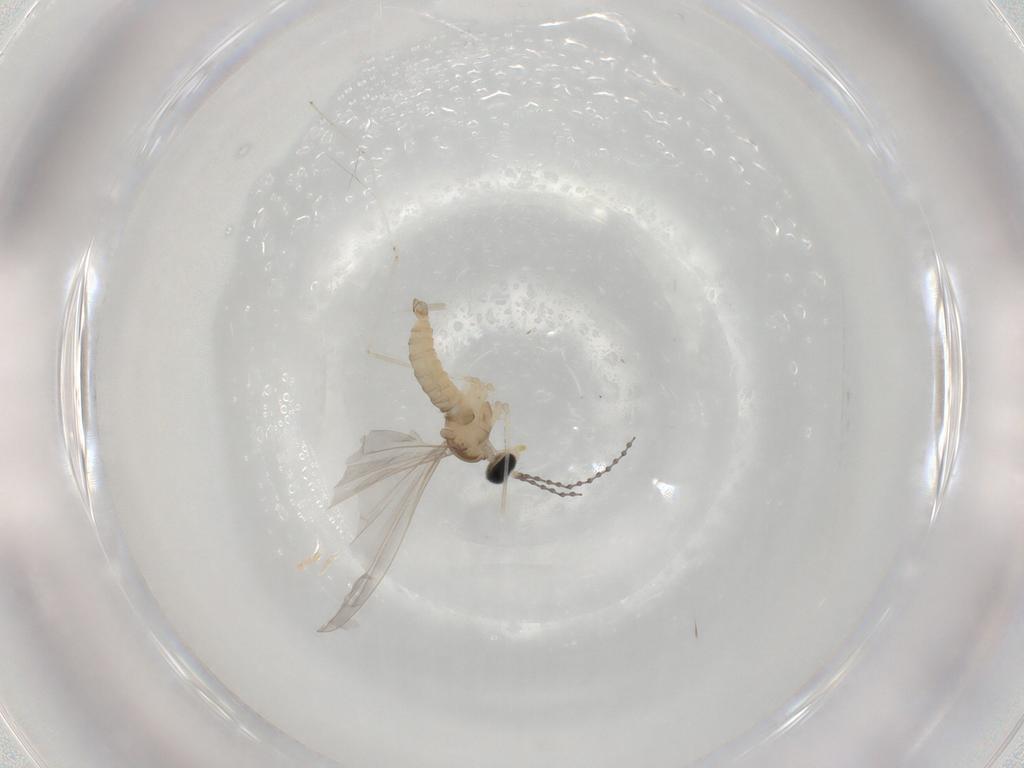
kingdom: Animalia
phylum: Arthropoda
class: Insecta
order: Diptera
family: Cecidomyiidae
